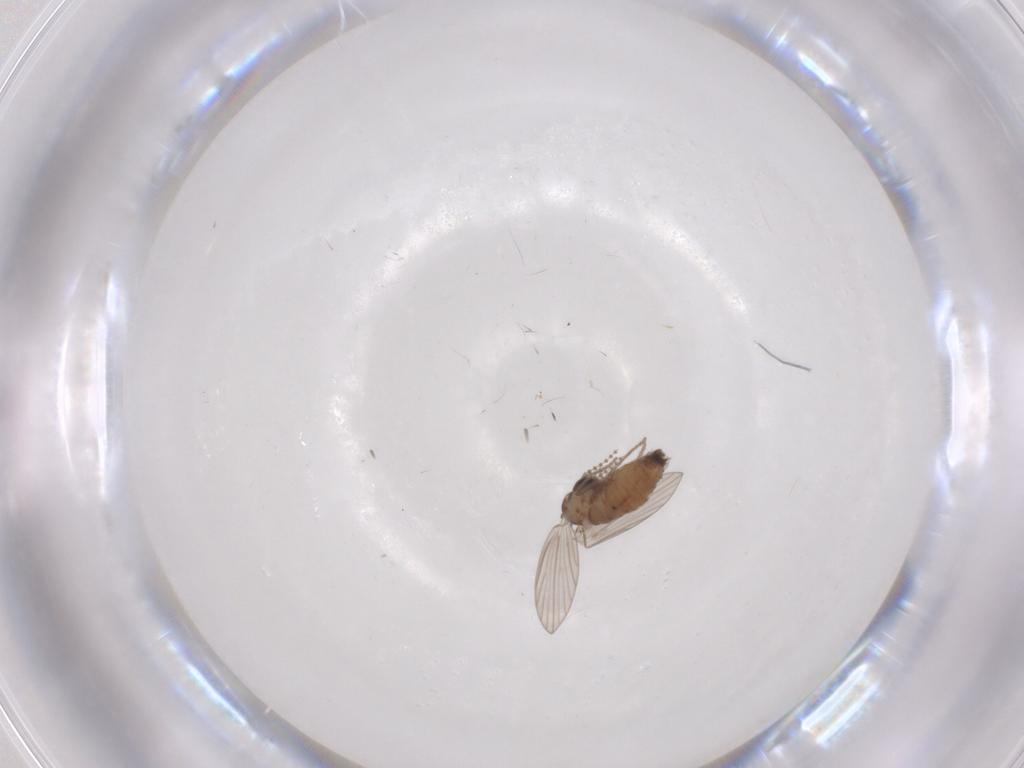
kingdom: Animalia
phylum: Arthropoda
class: Insecta
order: Diptera
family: Psychodidae
